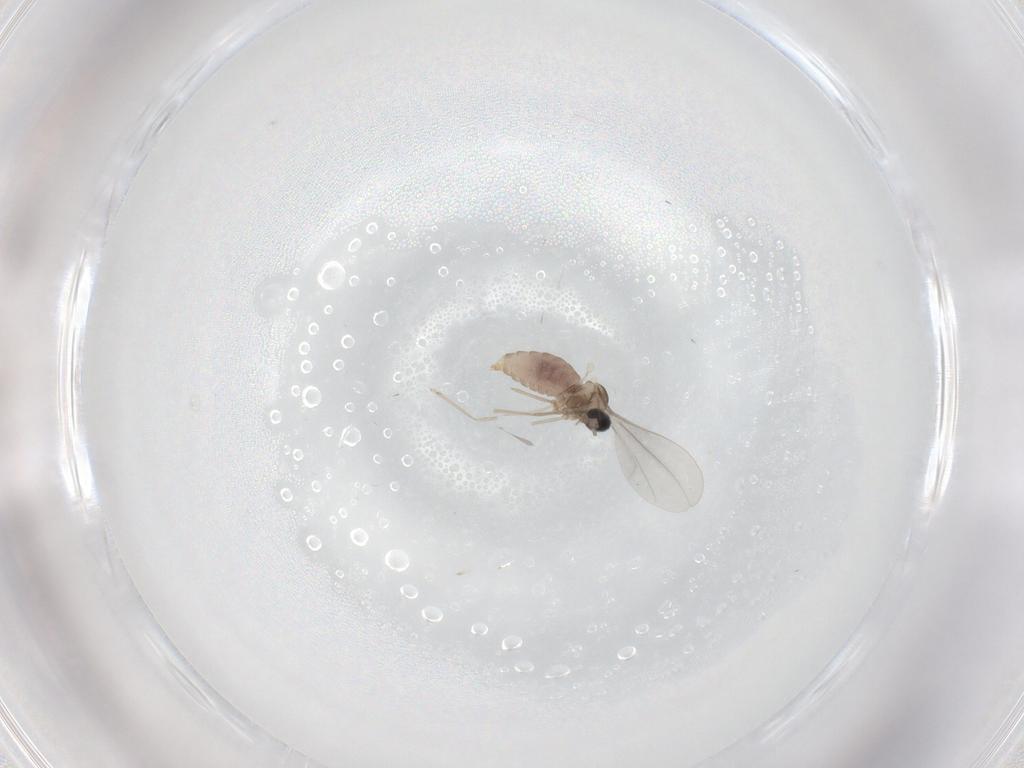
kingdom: Animalia
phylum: Arthropoda
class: Insecta
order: Diptera
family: Cecidomyiidae
